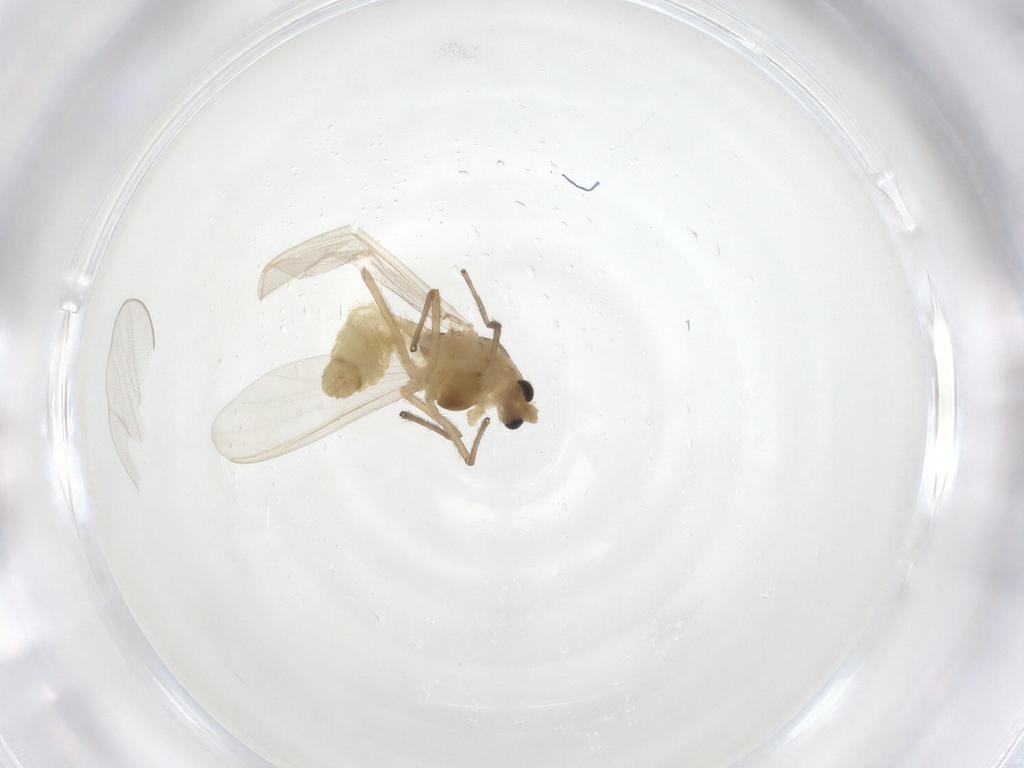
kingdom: Animalia
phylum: Arthropoda
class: Insecta
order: Diptera
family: Chironomidae
